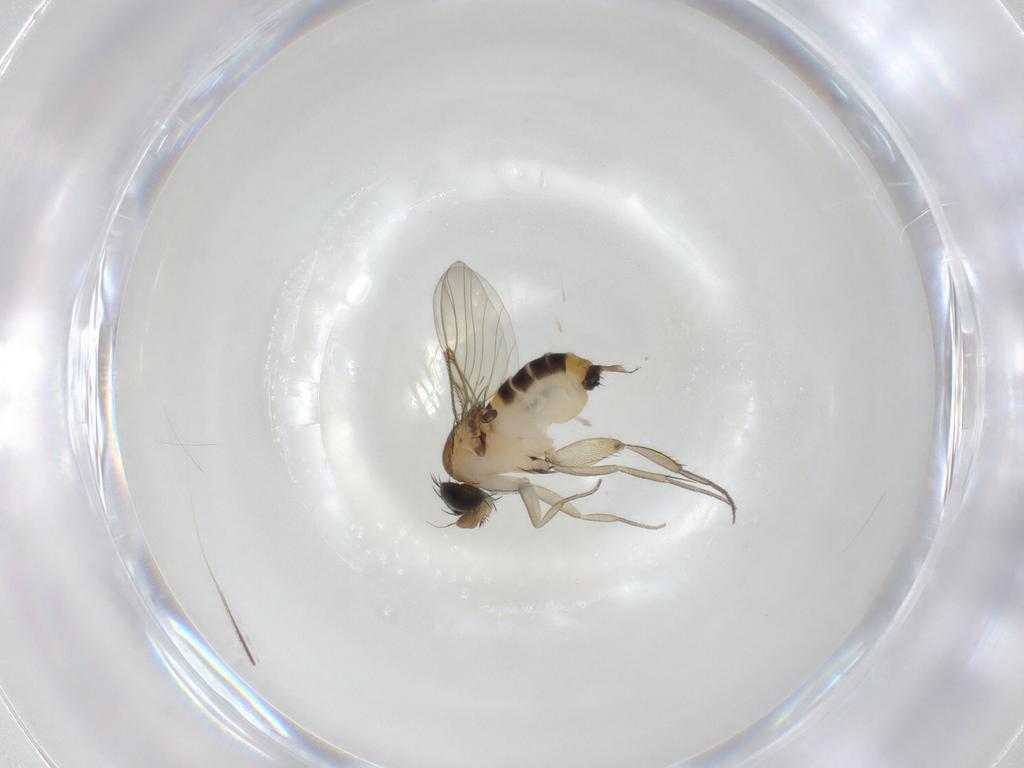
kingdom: Animalia
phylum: Arthropoda
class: Insecta
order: Diptera
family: Phoridae
